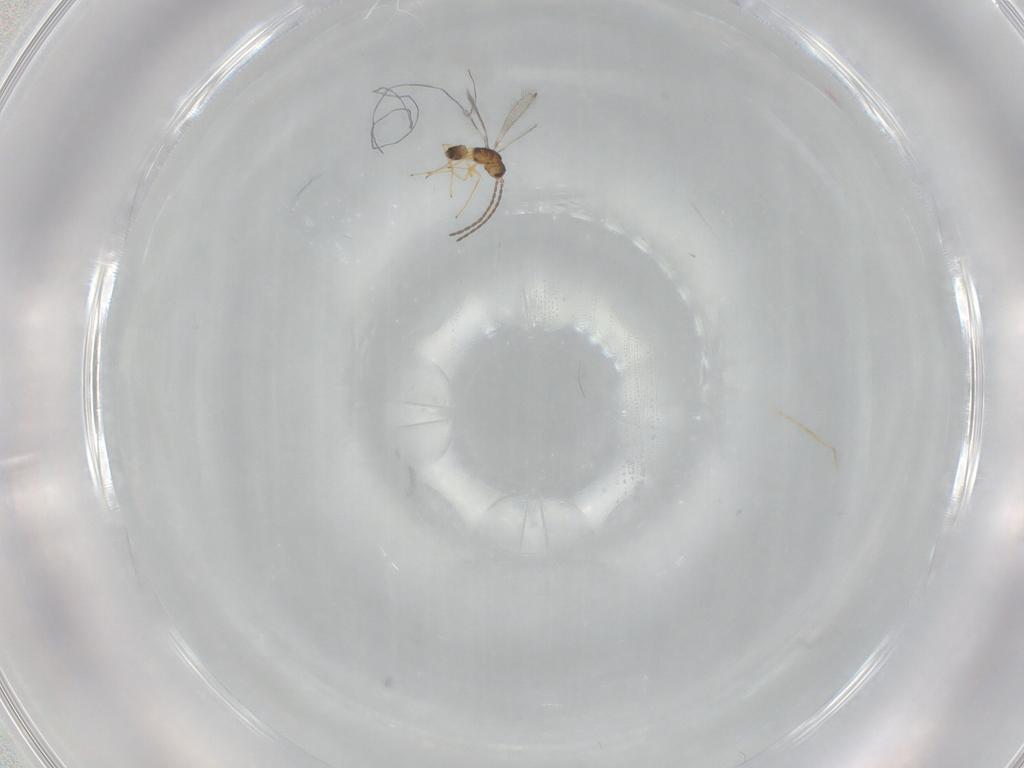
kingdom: Animalia
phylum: Arthropoda
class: Insecta
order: Hymenoptera
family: Mymaridae
